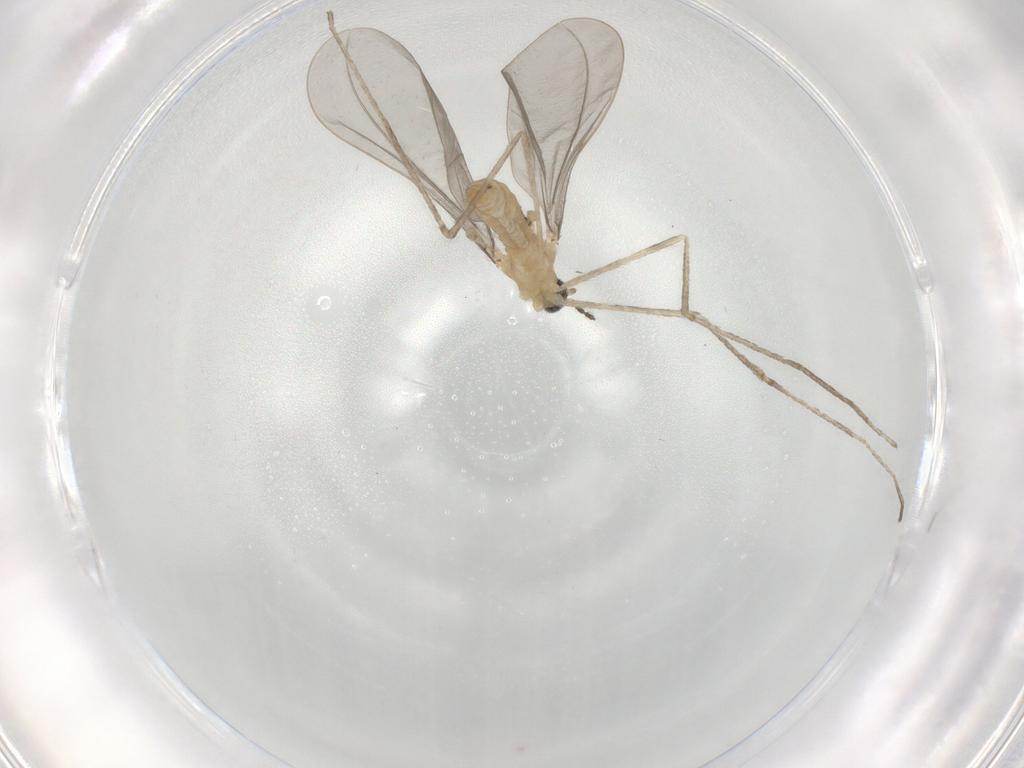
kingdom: Animalia
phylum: Arthropoda
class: Insecta
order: Diptera
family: Cecidomyiidae
